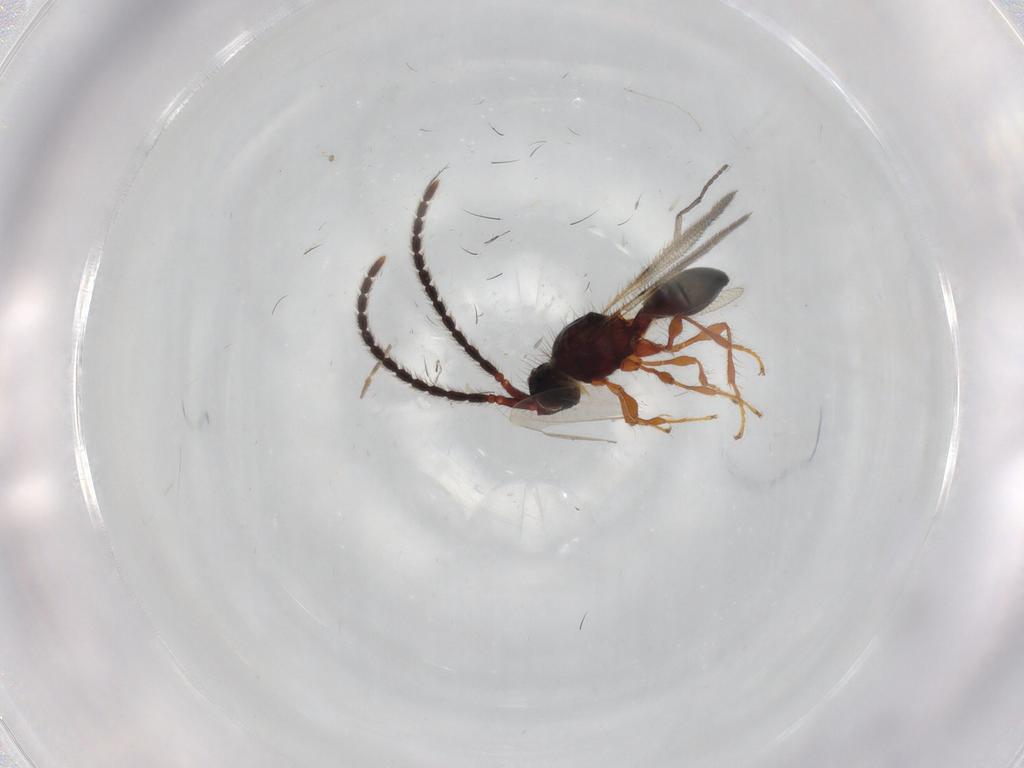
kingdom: Animalia
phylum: Arthropoda
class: Insecta
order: Hymenoptera
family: Diapriidae
